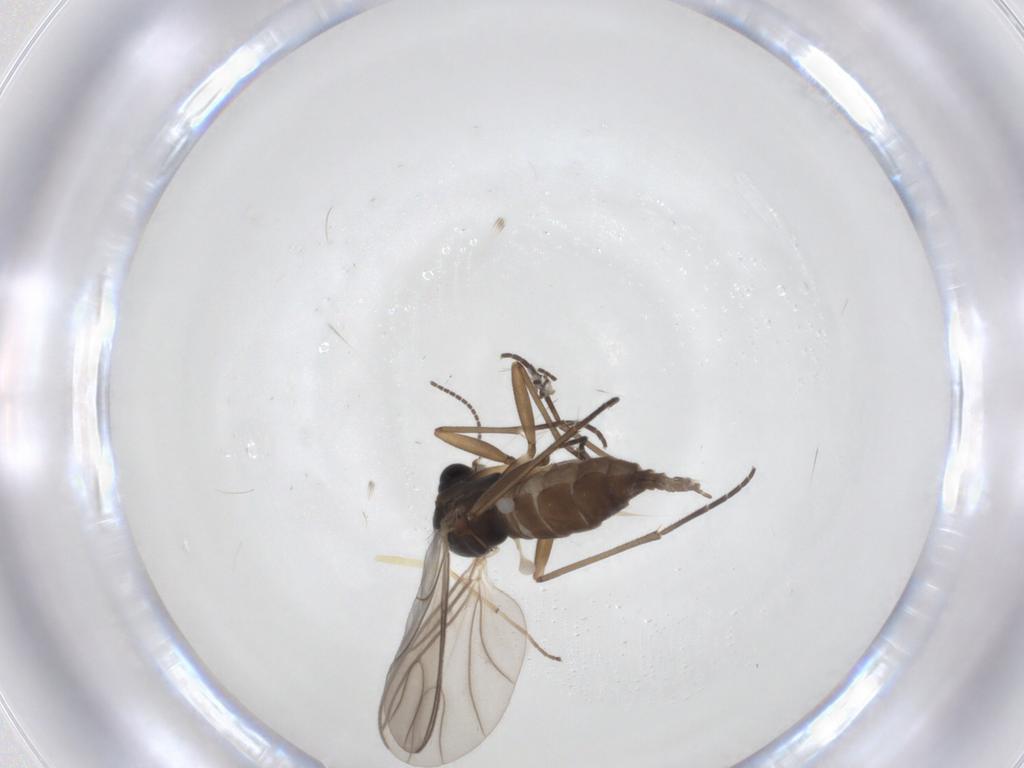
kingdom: Animalia
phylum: Arthropoda
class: Insecta
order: Diptera
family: Sciaridae
